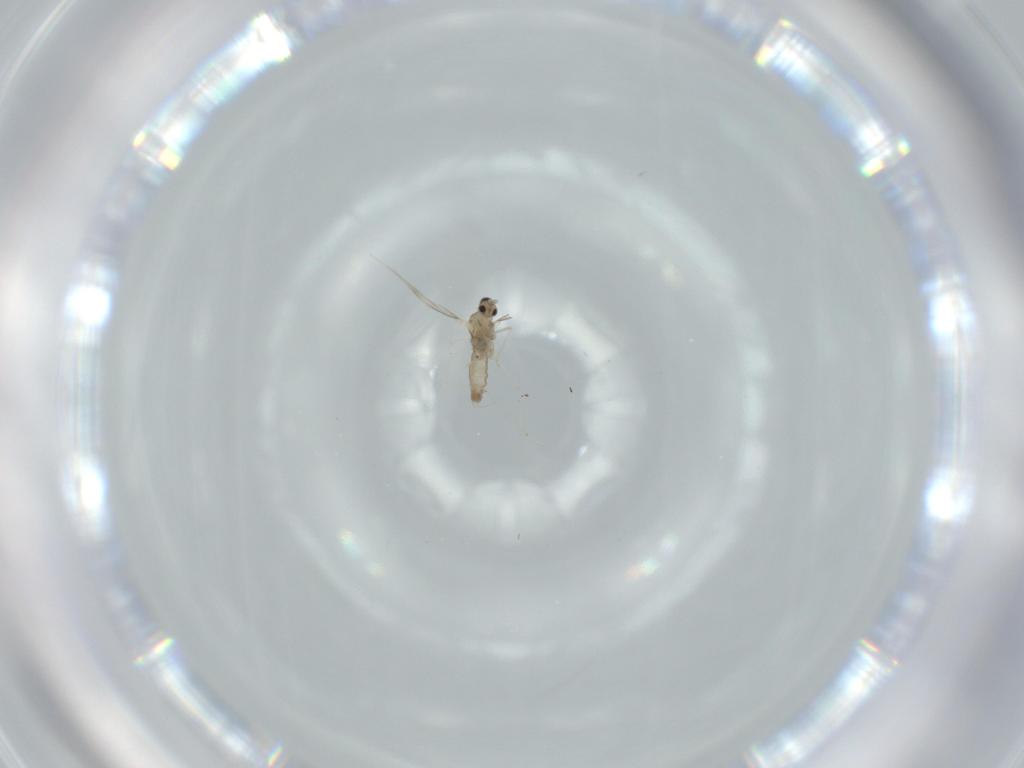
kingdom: Animalia
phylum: Arthropoda
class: Insecta
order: Diptera
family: Cecidomyiidae
